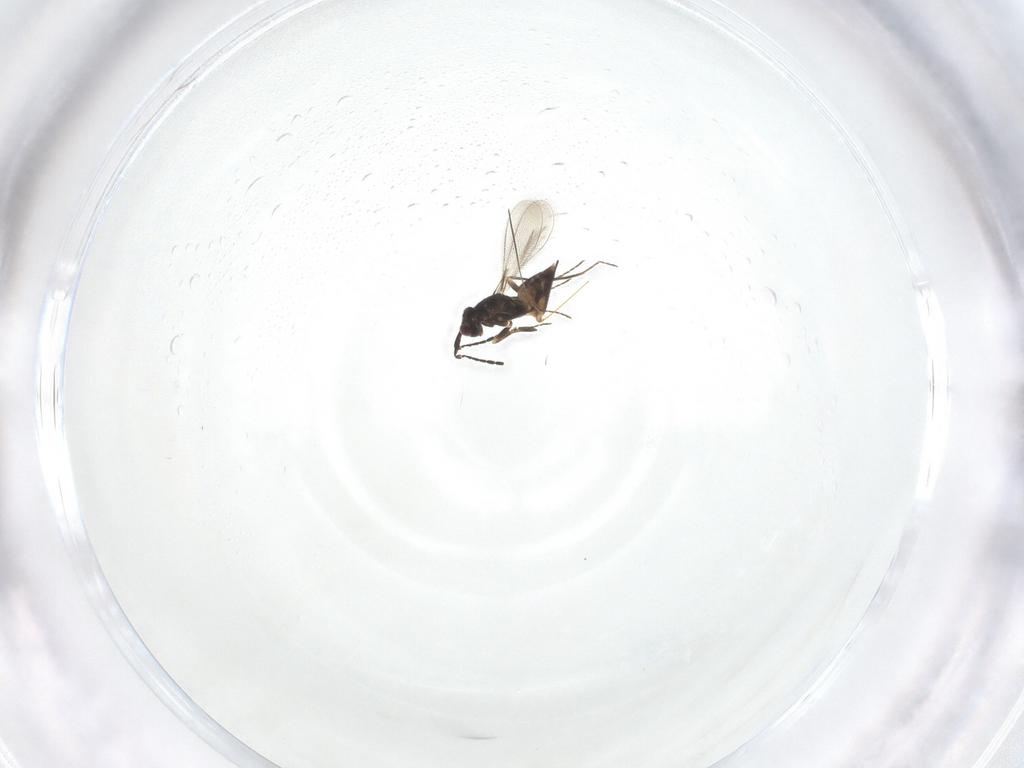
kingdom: Animalia
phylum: Arthropoda
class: Insecta
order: Hymenoptera
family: Mymaridae
